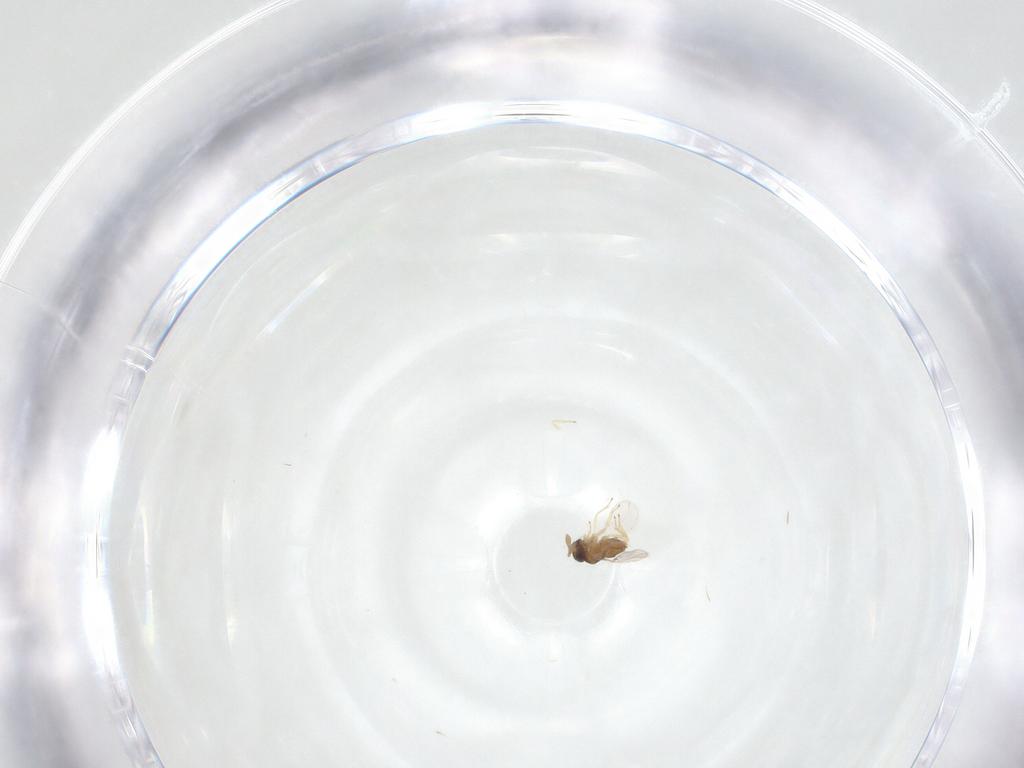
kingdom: Animalia
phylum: Arthropoda
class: Insecta
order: Hymenoptera
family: Encyrtidae
